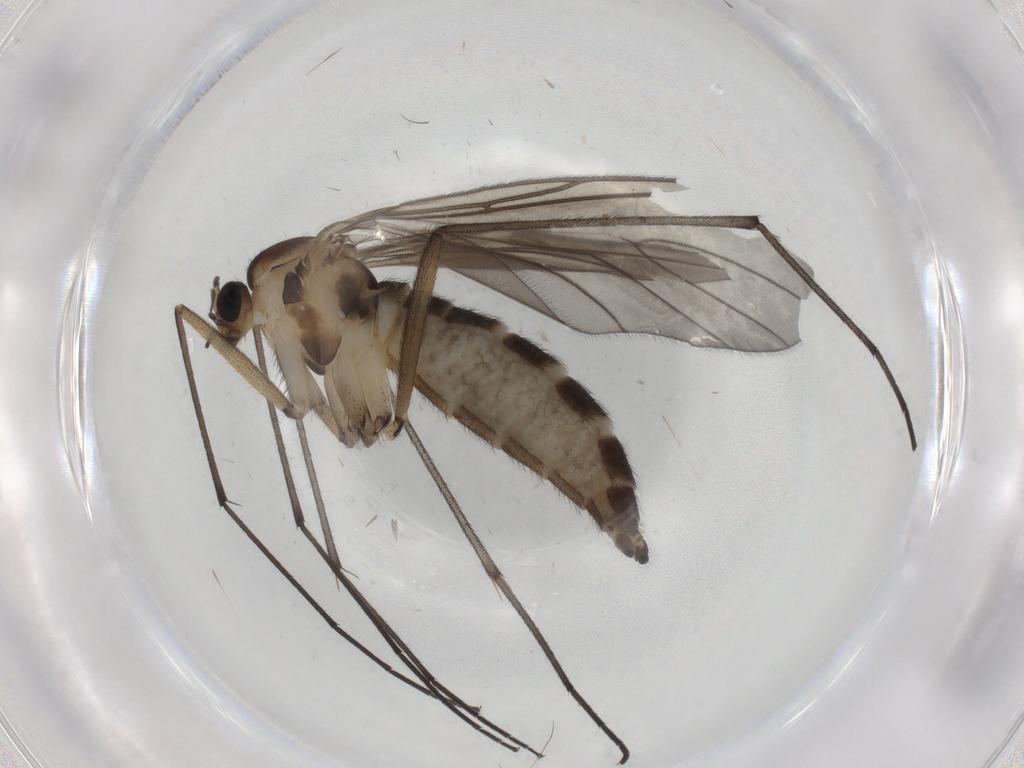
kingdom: Animalia
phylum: Arthropoda
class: Insecta
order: Diptera
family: Sciaridae
